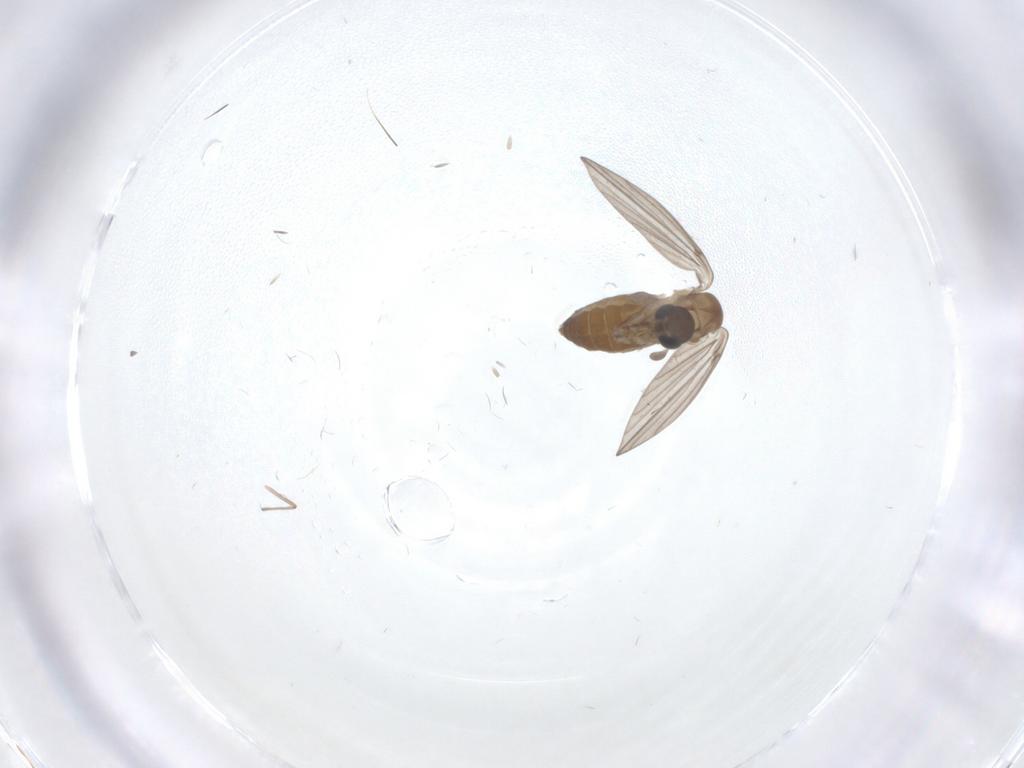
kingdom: Animalia
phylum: Arthropoda
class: Insecta
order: Diptera
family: Chironomidae
